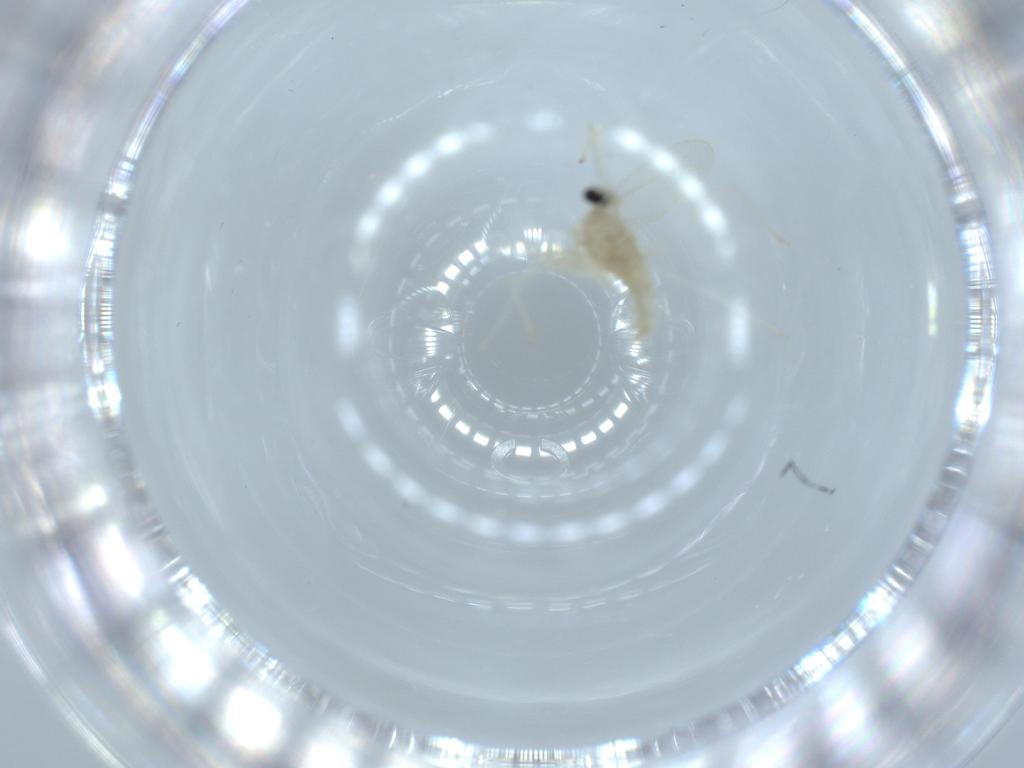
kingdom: Animalia
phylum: Arthropoda
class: Insecta
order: Diptera
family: Cecidomyiidae
